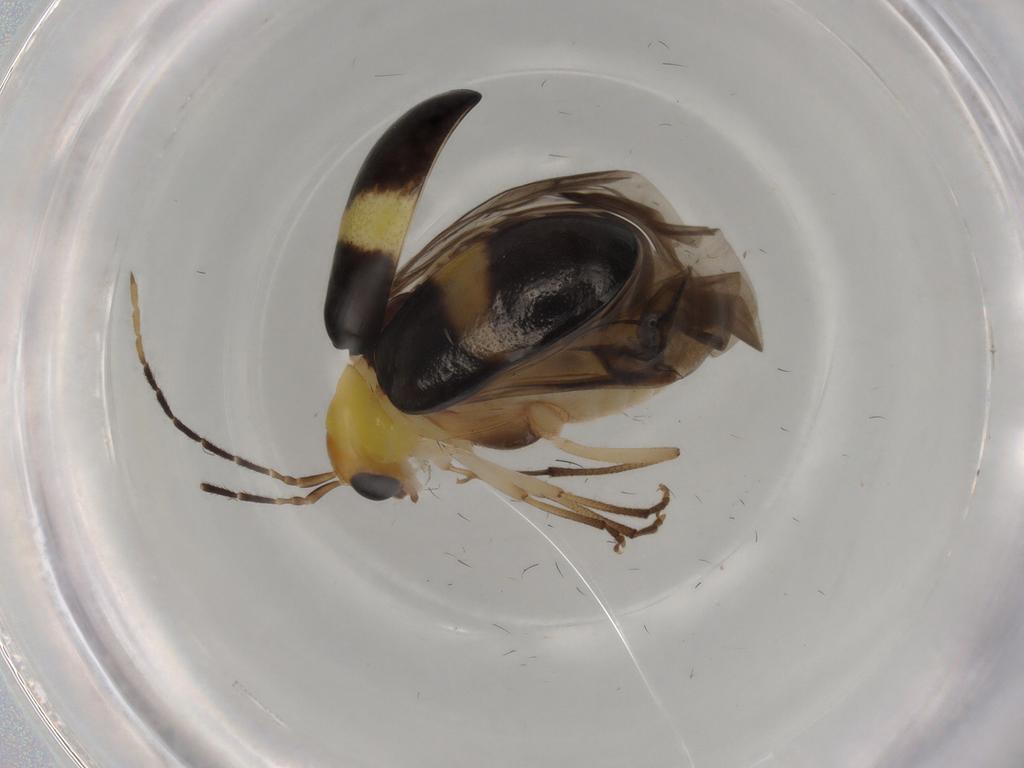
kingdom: Animalia
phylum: Arthropoda
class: Insecta
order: Coleoptera
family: Chrysomelidae
